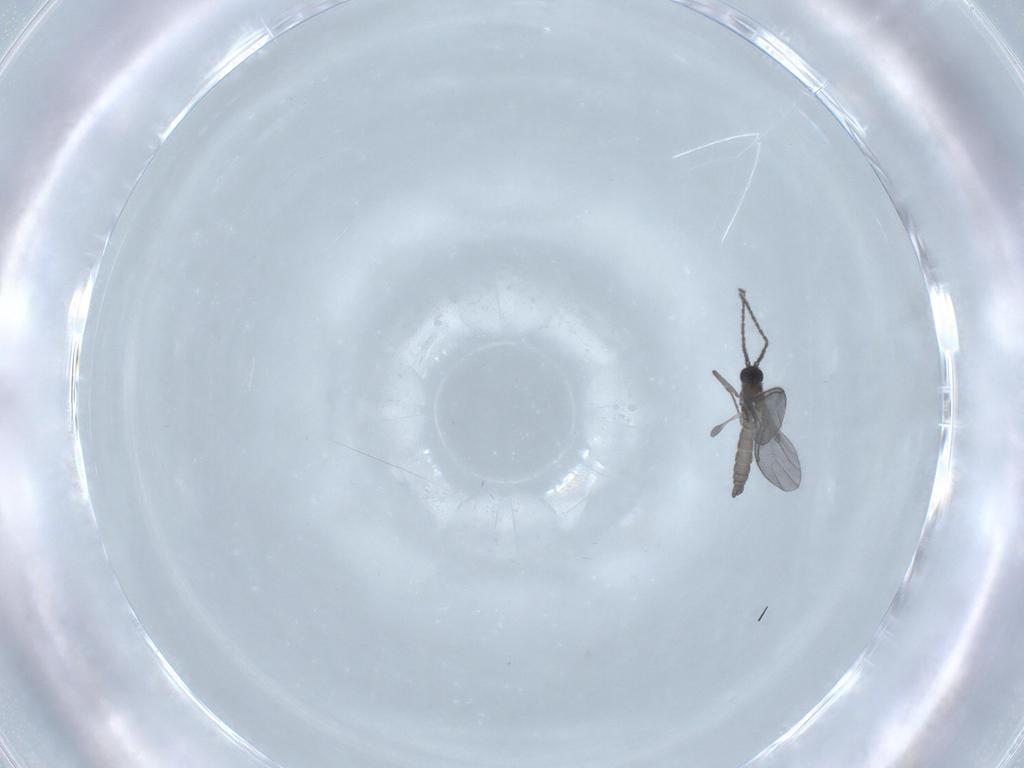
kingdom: Animalia
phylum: Arthropoda
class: Insecta
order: Diptera
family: Sciaridae
